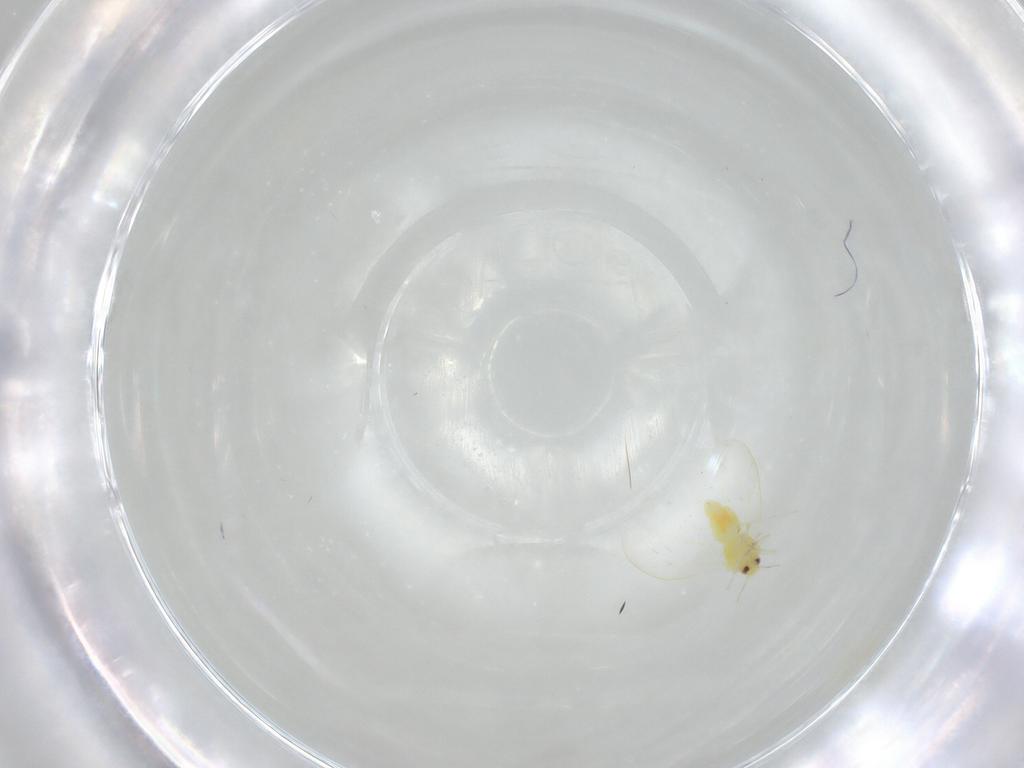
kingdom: Animalia
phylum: Arthropoda
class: Insecta
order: Hemiptera
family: Aleyrodidae
